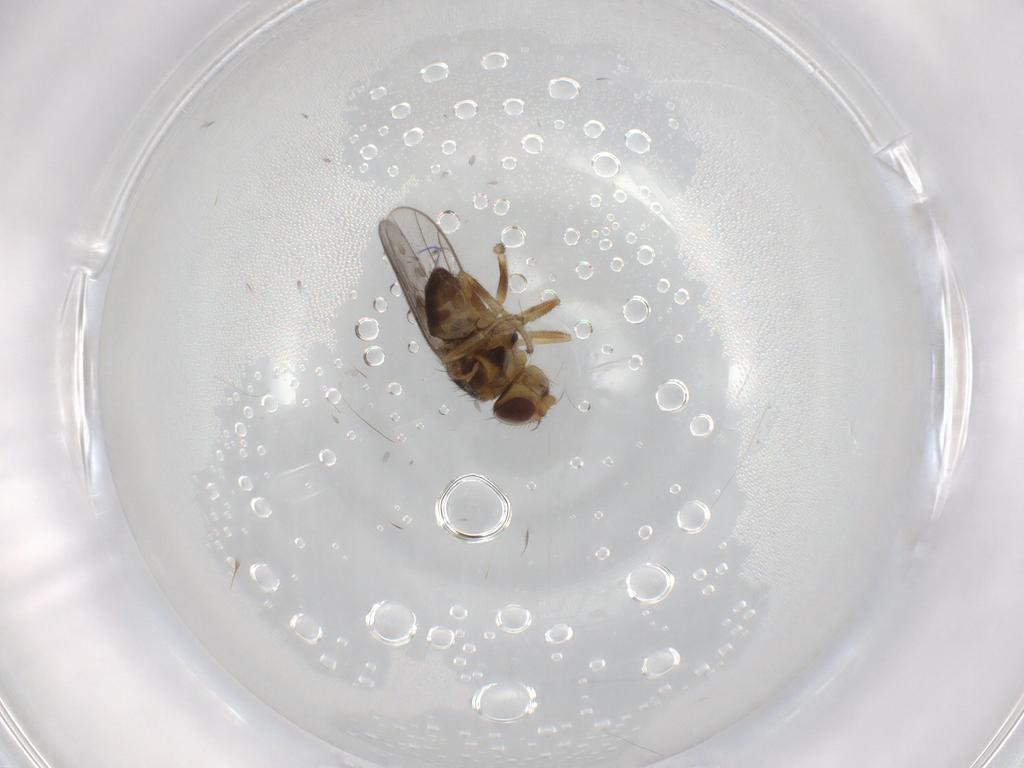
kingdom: Animalia
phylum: Arthropoda
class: Insecta
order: Diptera
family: Chloropidae
